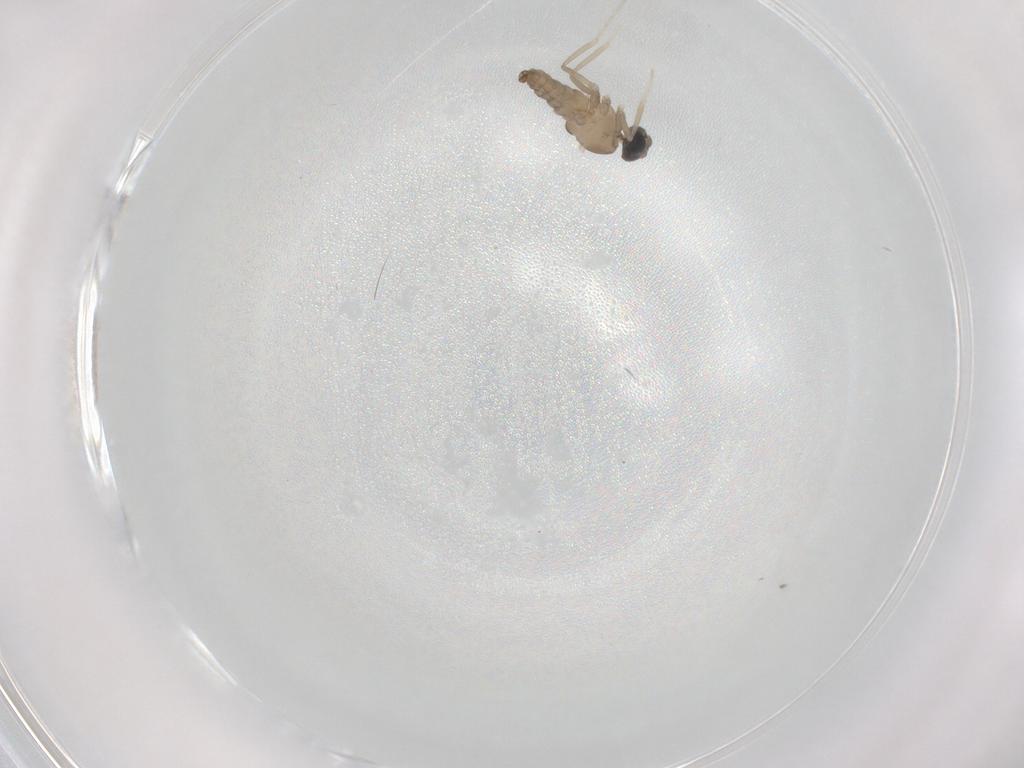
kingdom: Animalia
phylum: Arthropoda
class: Insecta
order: Diptera
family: Cecidomyiidae
